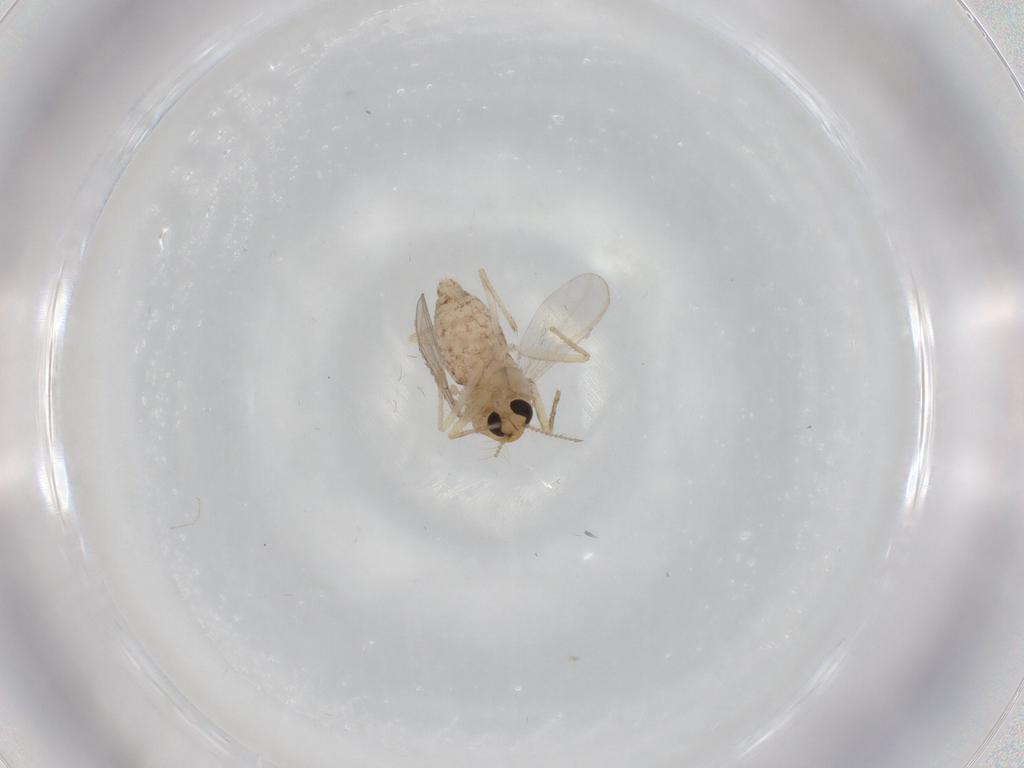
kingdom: Animalia
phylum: Arthropoda
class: Insecta
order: Diptera
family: Chironomidae
